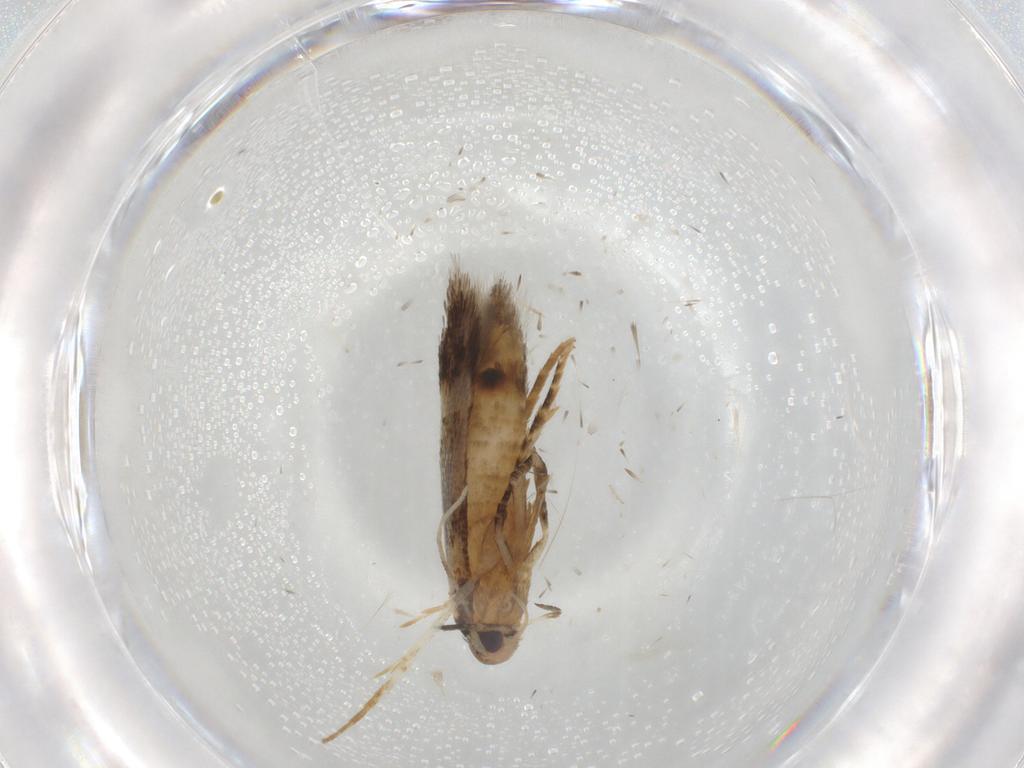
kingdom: Animalia
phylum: Arthropoda
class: Insecta
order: Lepidoptera
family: Cosmopterigidae
